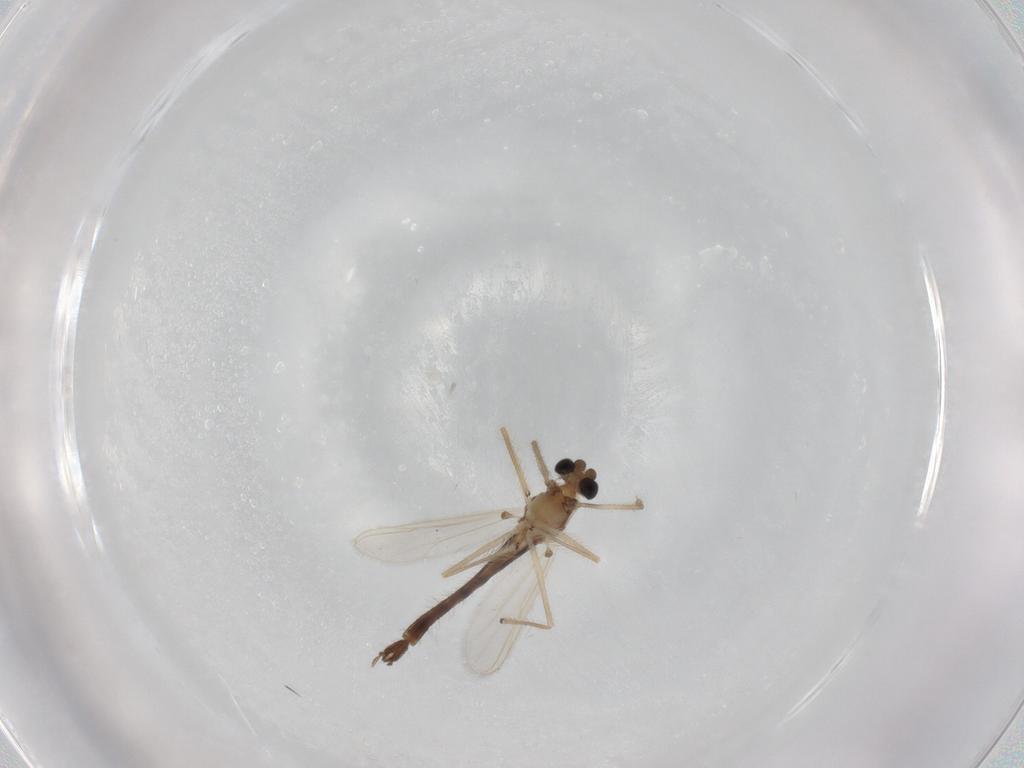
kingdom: Animalia
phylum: Arthropoda
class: Insecta
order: Diptera
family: Chironomidae
